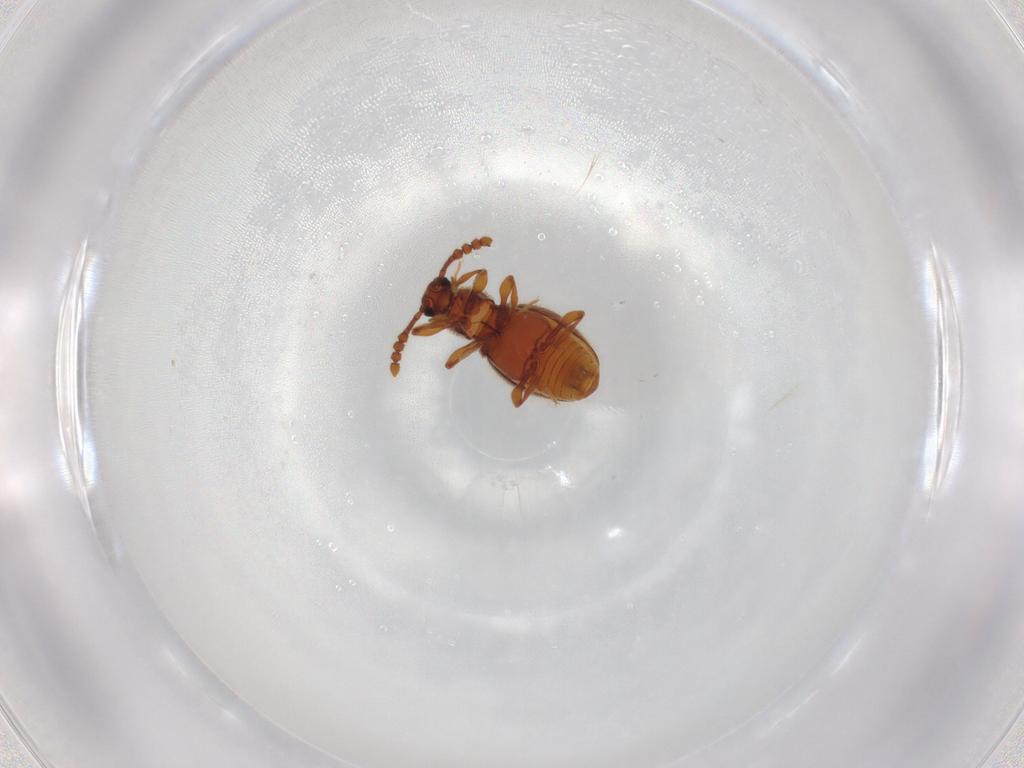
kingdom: Animalia
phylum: Arthropoda
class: Insecta
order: Coleoptera
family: Staphylinidae
